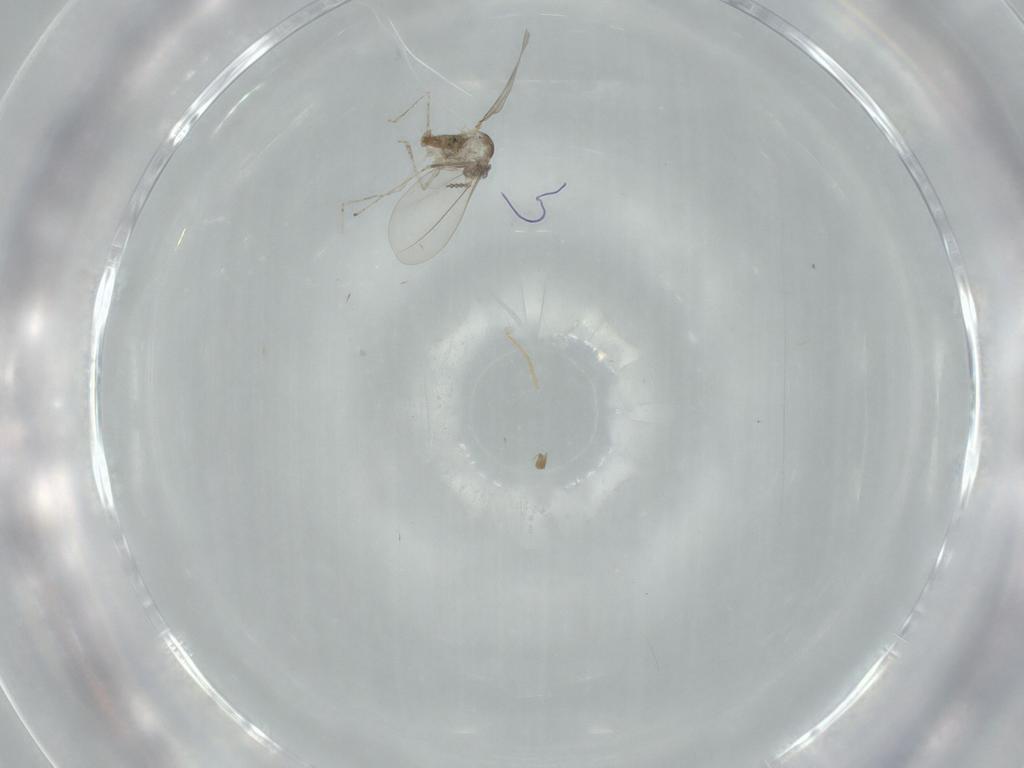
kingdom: Animalia
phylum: Arthropoda
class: Insecta
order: Diptera
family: Cecidomyiidae
